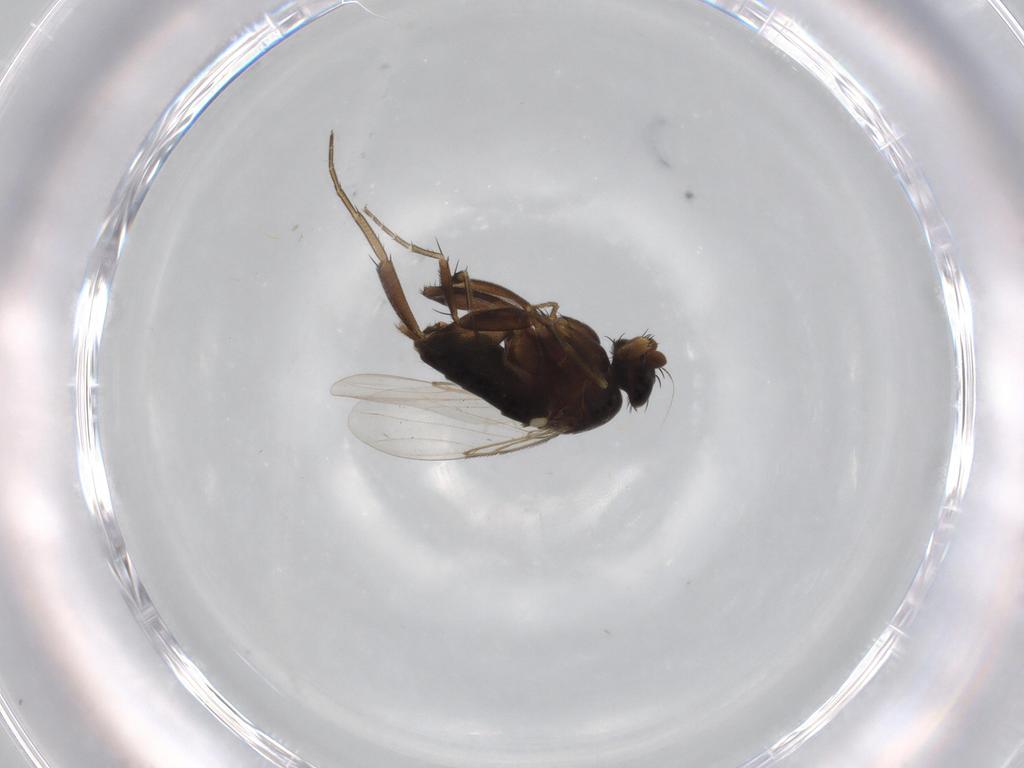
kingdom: Animalia
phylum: Arthropoda
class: Insecta
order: Diptera
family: Phoridae
